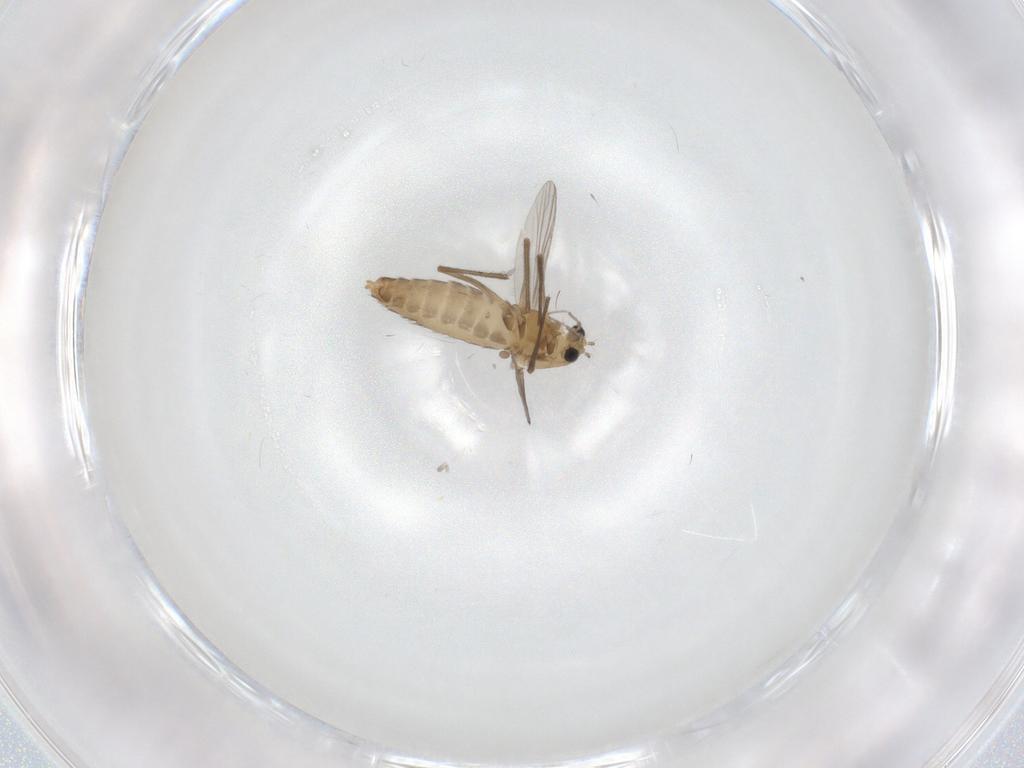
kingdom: Animalia
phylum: Arthropoda
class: Insecta
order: Diptera
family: Chironomidae
